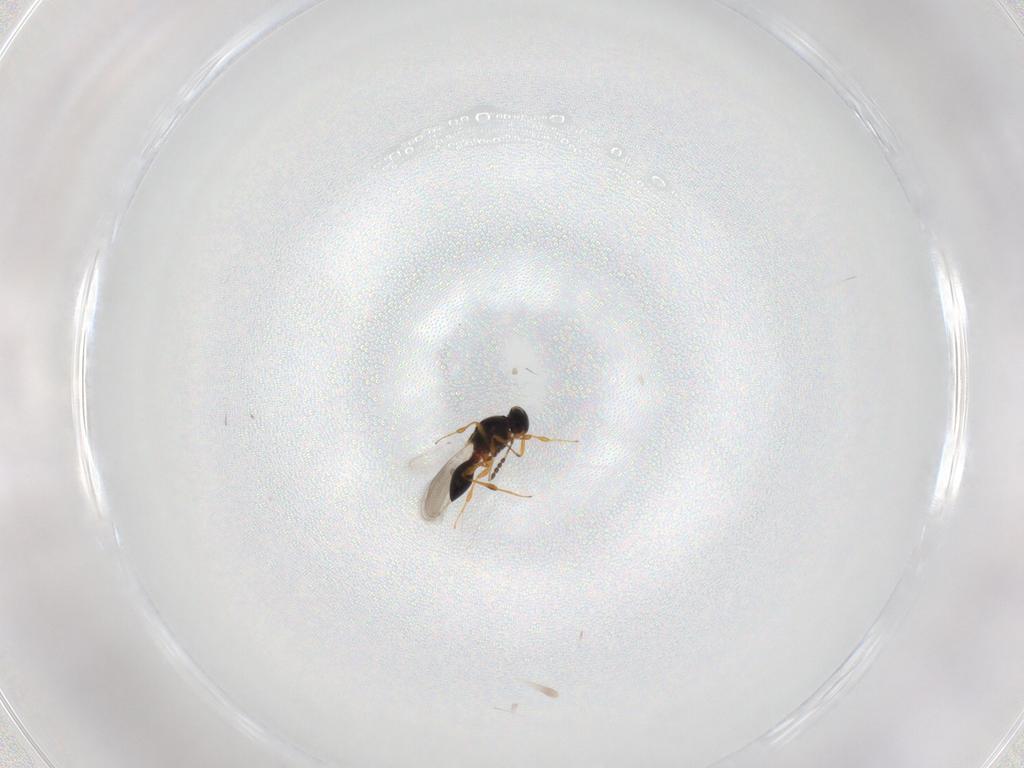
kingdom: Animalia
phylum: Arthropoda
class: Insecta
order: Hymenoptera
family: Platygastridae
